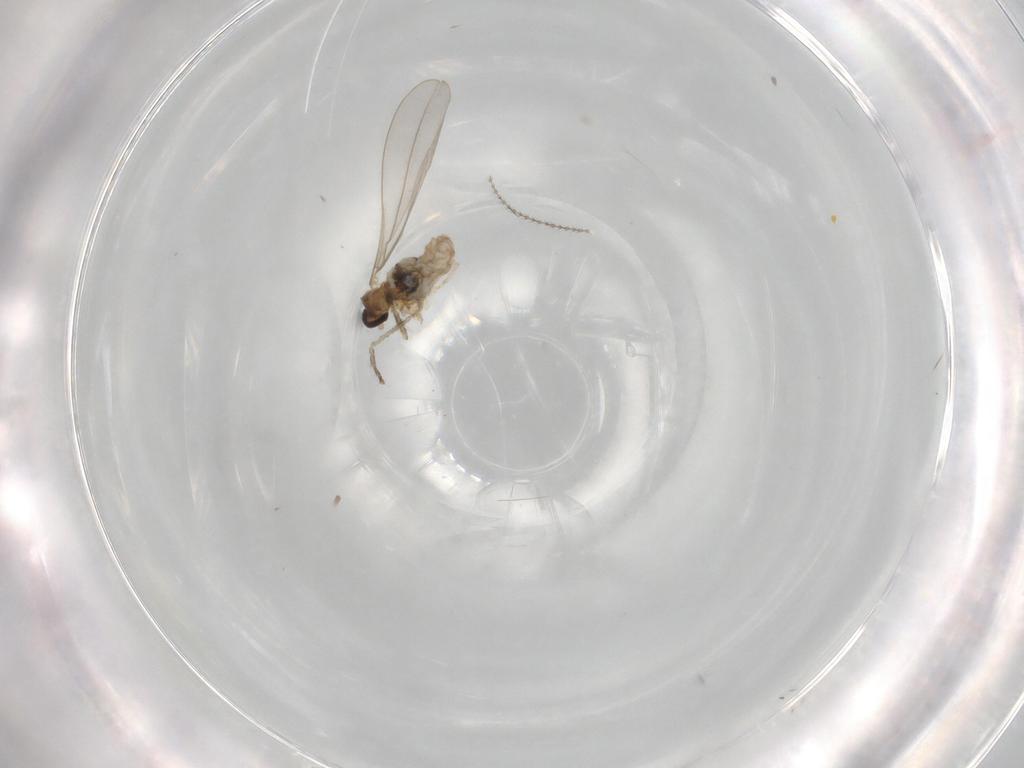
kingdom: Animalia
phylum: Arthropoda
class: Insecta
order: Diptera
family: Cecidomyiidae
